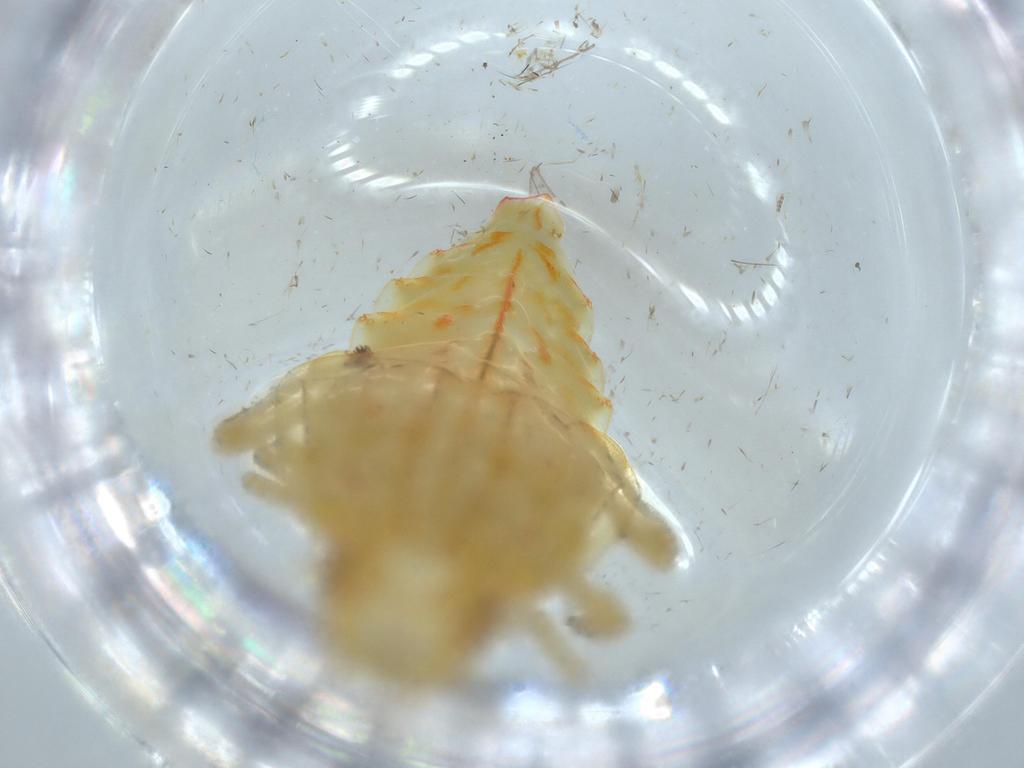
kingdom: Animalia
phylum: Arthropoda
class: Insecta
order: Hemiptera
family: Tropiduchidae
